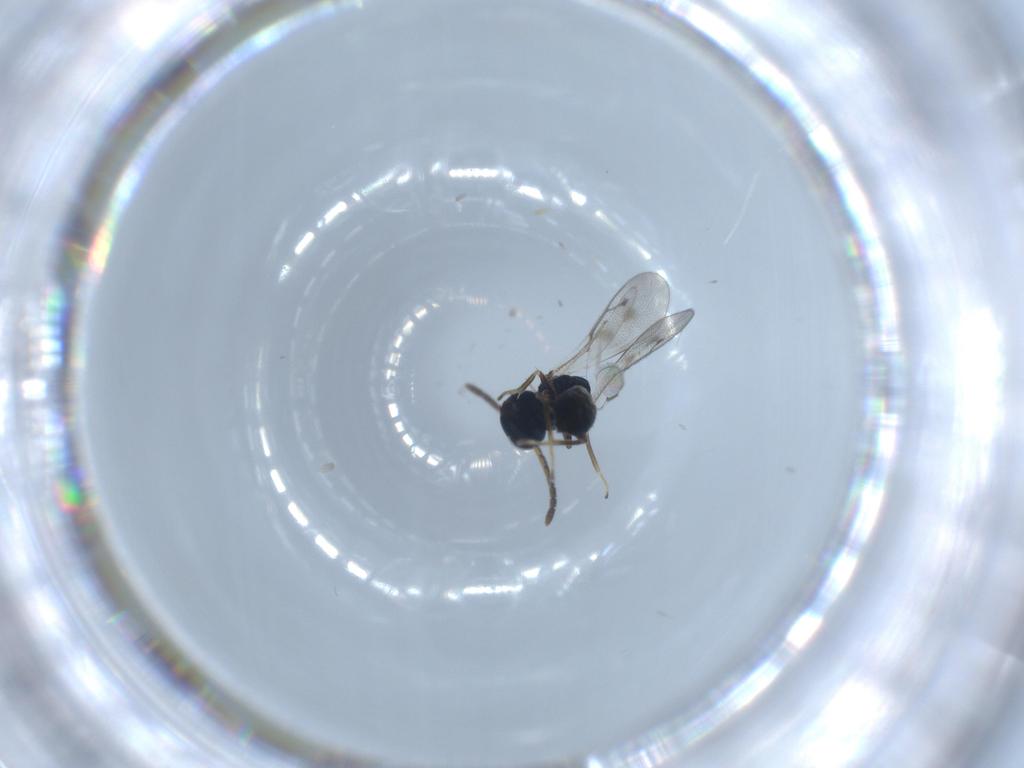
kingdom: Animalia
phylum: Arthropoda
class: Insecta
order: Hymenoptera
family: Pteromalidae
